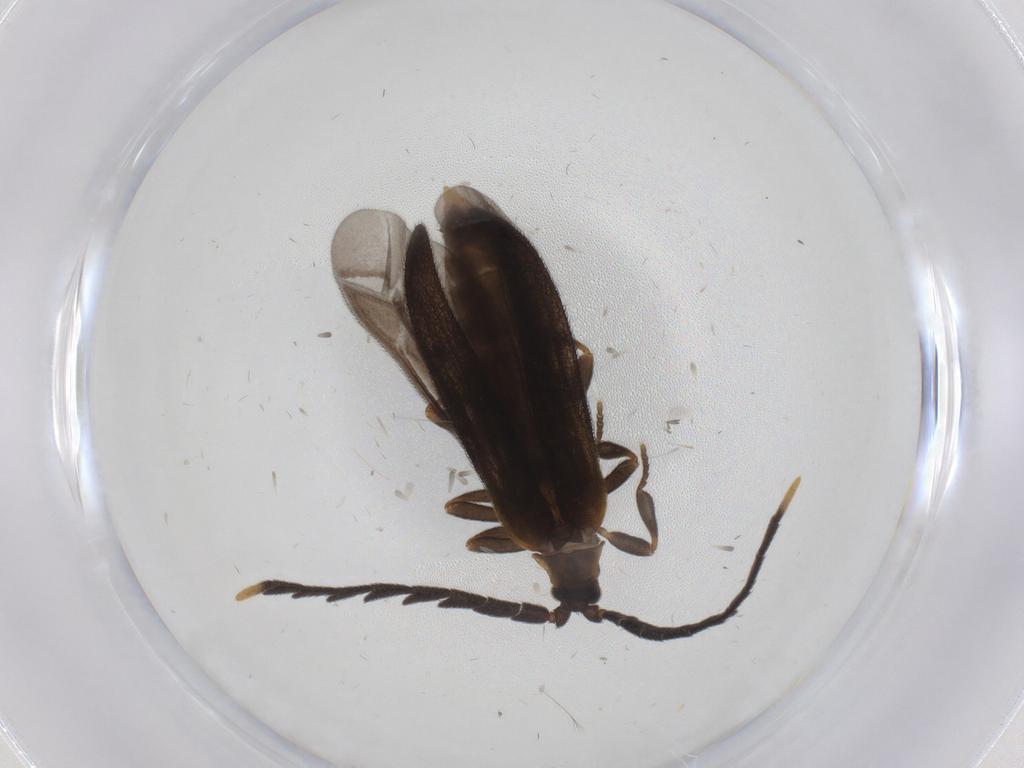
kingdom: Animalia
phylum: Arthropoda
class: Insecta
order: Coleoptera
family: Lycidae
